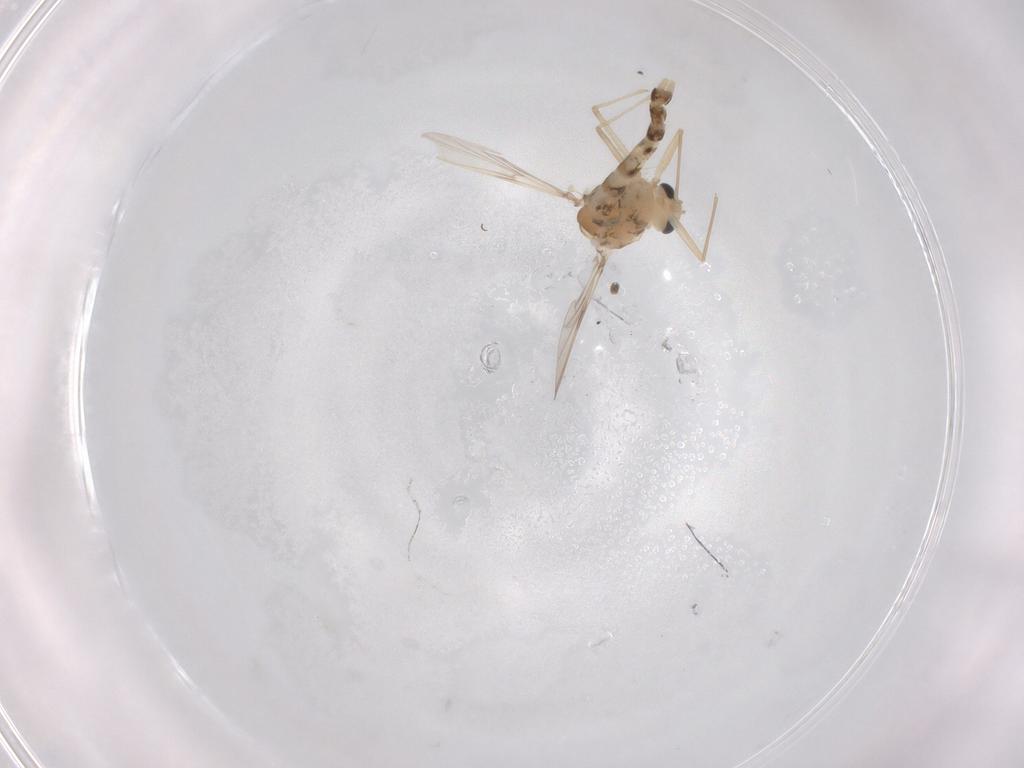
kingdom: Animalia
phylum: Arthropoda
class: Insecta
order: Diptera
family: Chironomidae
